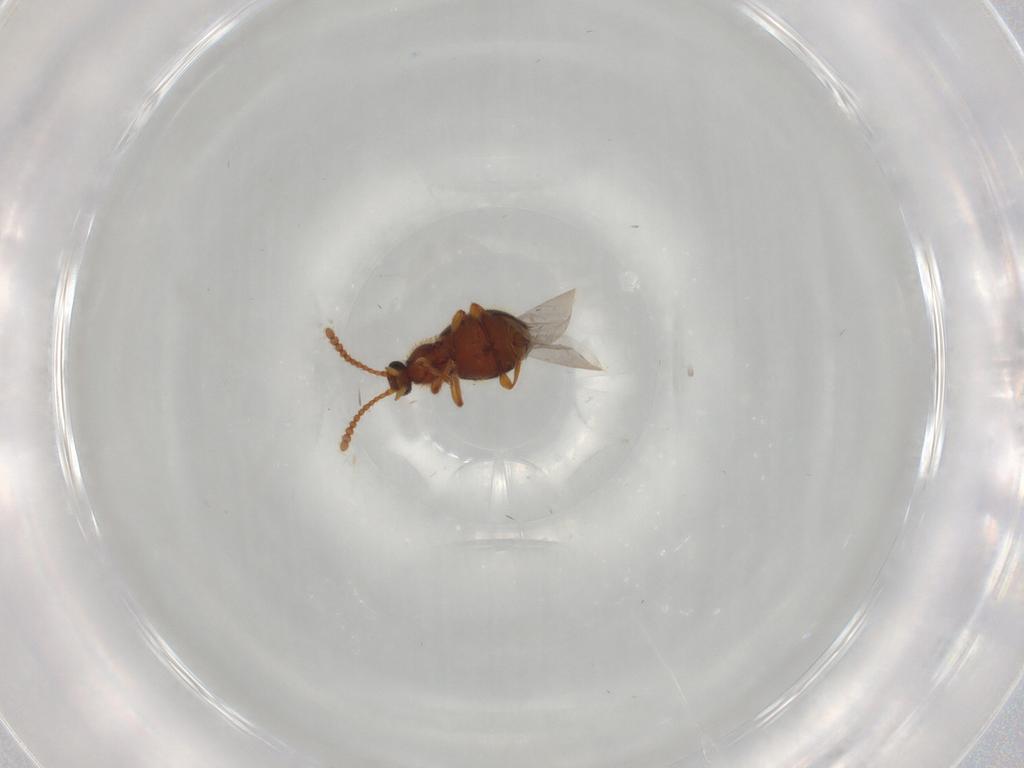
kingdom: Animalia
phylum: Arthropoda
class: Insecta
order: Coleoptera
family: Staphylinidae
